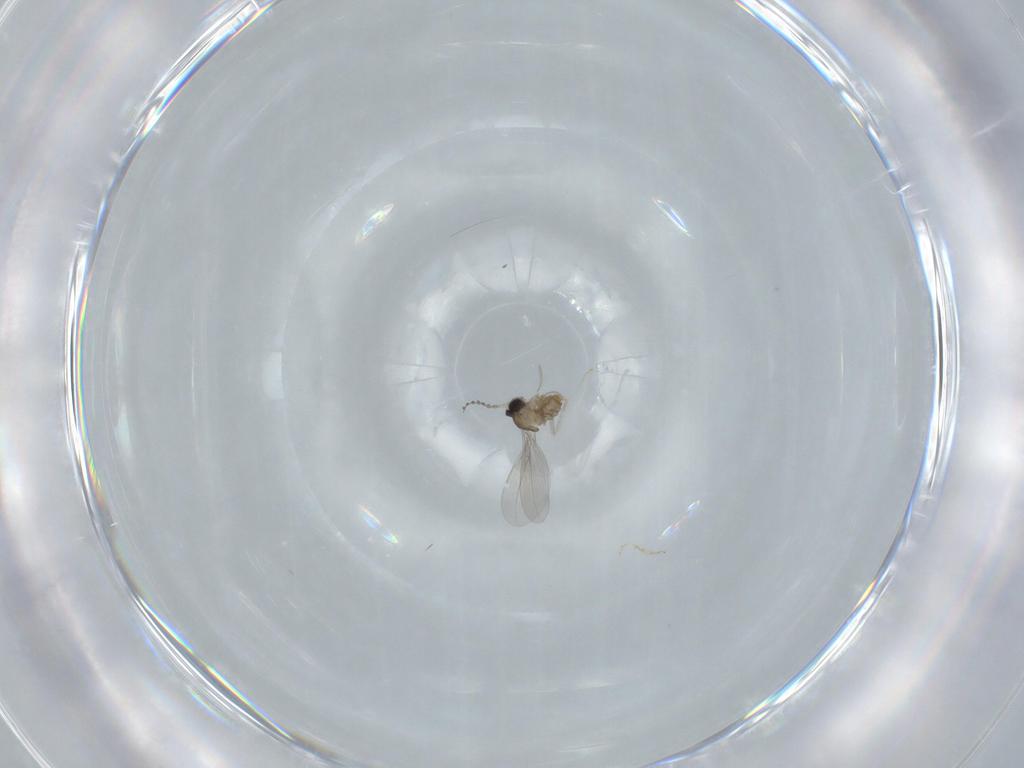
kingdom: Animalia
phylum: Arthropoda
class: Insecta
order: Diptera
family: Cecidomyiidae
